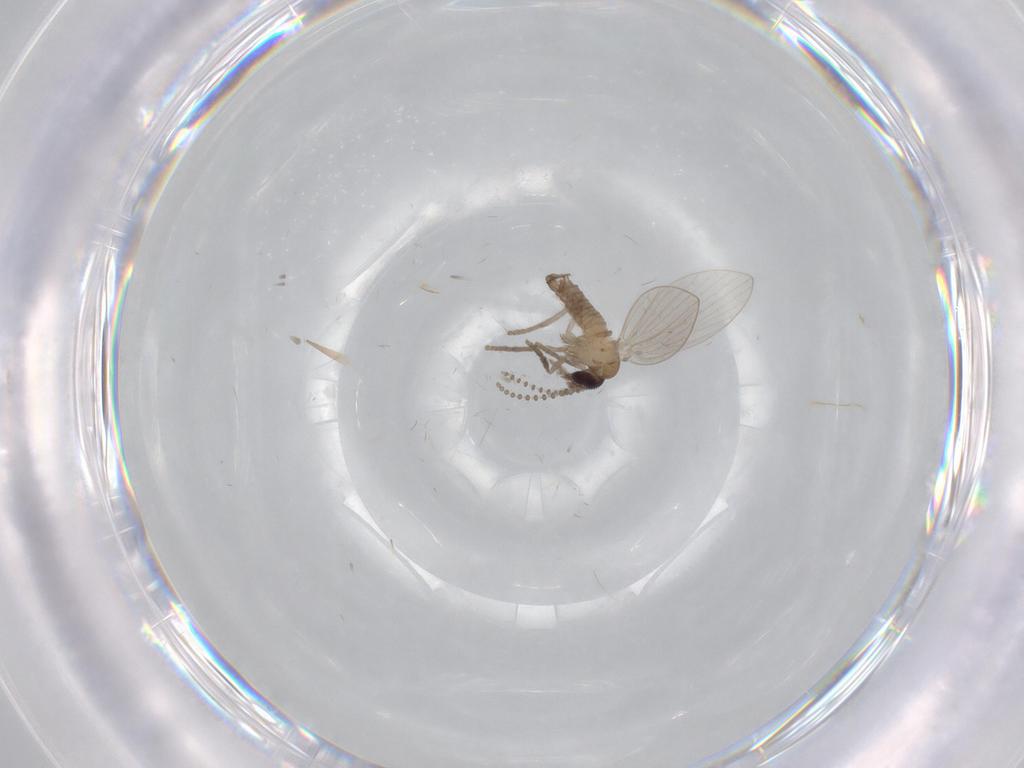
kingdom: Animalia
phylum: Arthropoda
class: Insecta
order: Diptera
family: Psychodidae
